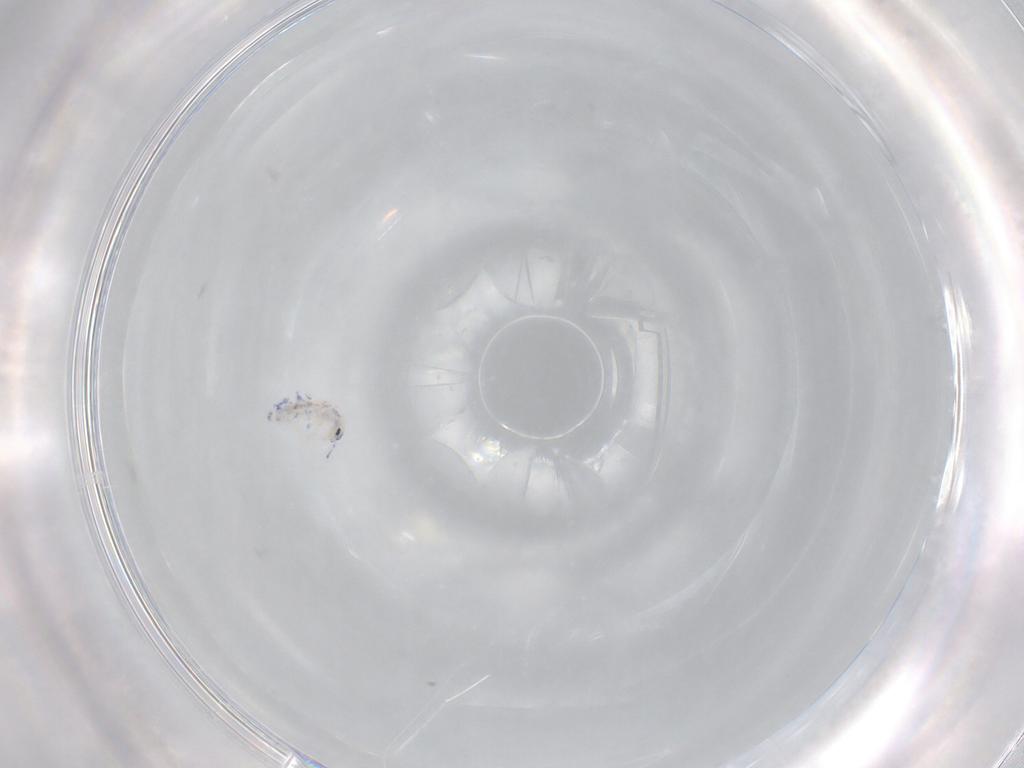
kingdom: Animalia
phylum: Arthropoda
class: Collembola
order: Entomobryomorpha
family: Entomobryidae
